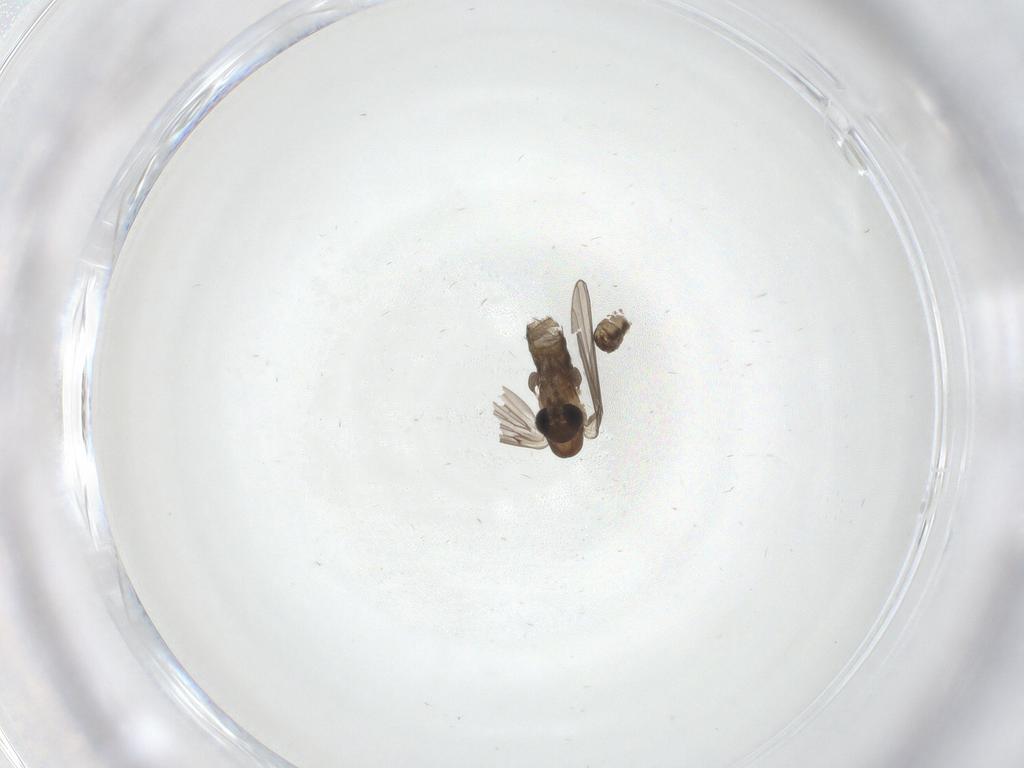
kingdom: Animalia
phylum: Arthropoda
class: Insecta
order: Diptera
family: Psychodidae
